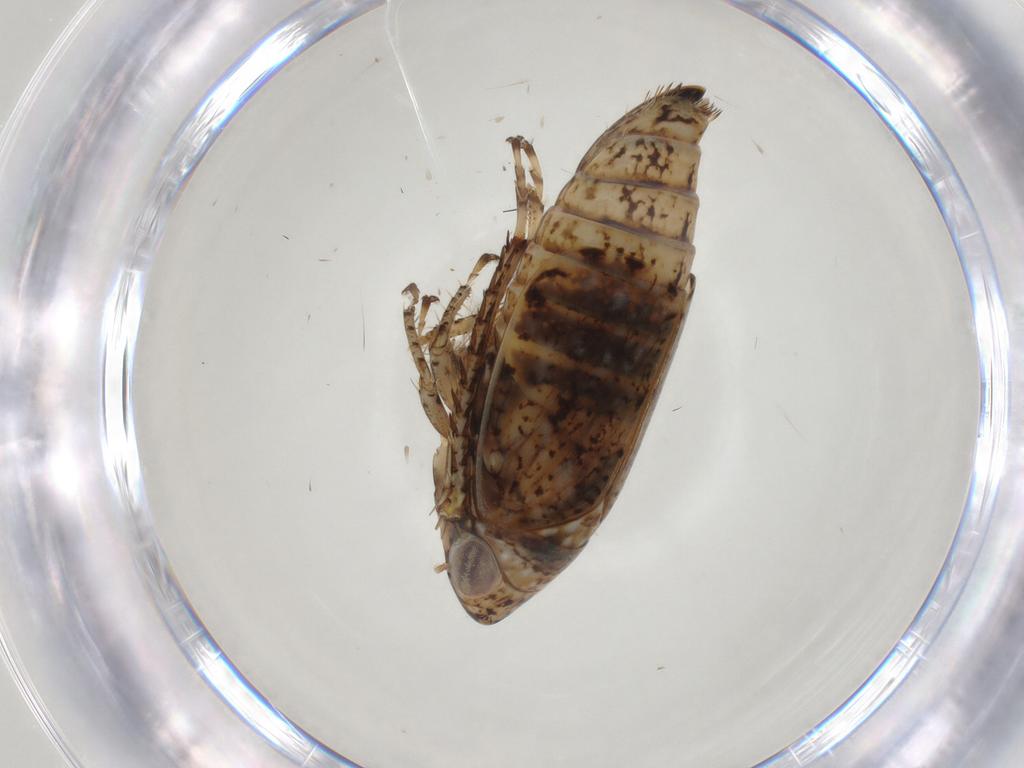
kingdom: Animalia
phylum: Arthropoda
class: Insecta
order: Hemiptera
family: Cicadellidae
